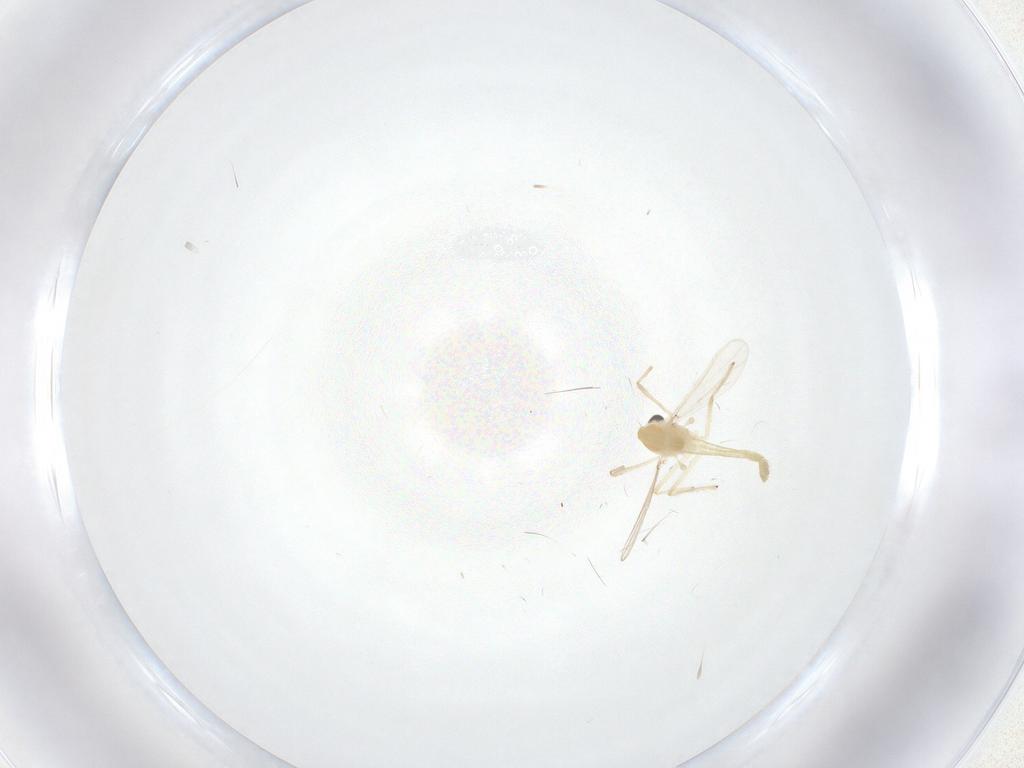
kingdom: Animalia
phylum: Arthropoda
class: Insecta
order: Diptera
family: Chironomidae
